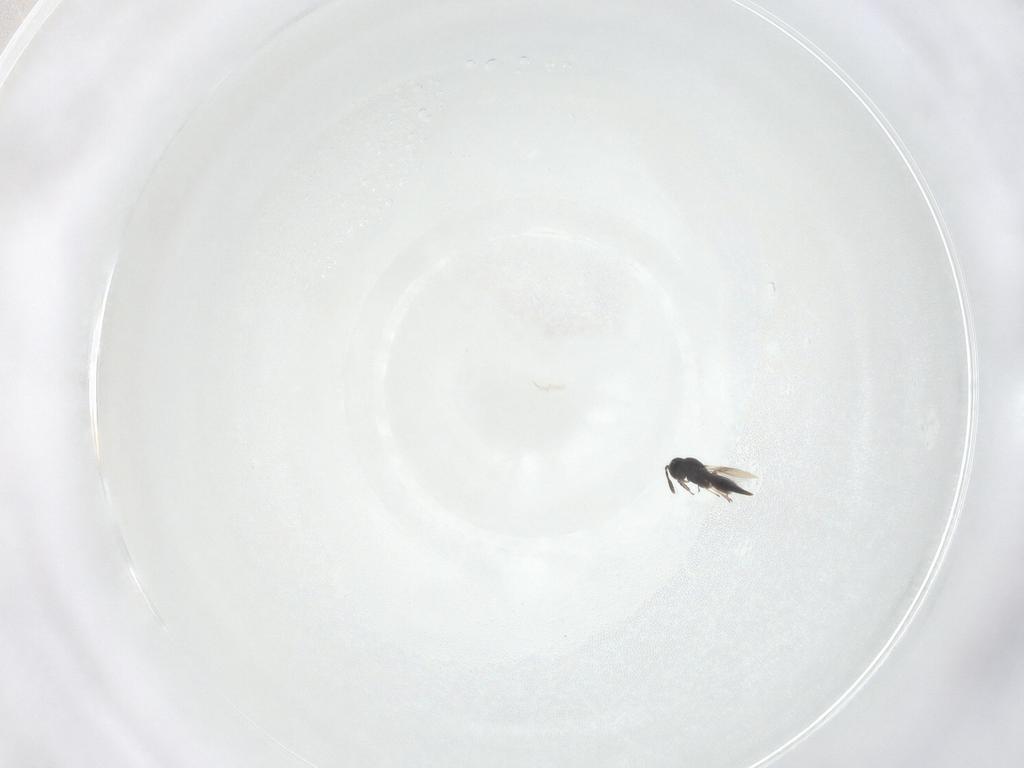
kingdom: Animalia
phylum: Arthropoda
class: Insecta
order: Hymenoptera
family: Scelionidae
